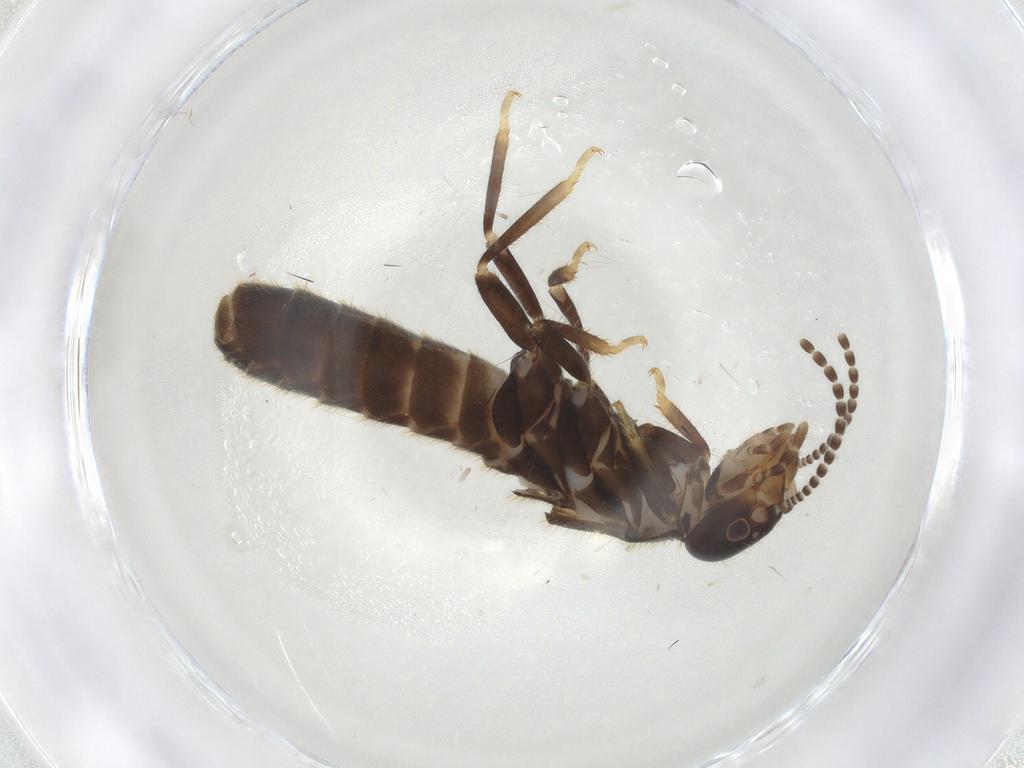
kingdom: Animalia
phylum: Arthropoda
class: Insecta
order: Blattodea
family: Rhinotermitidae
